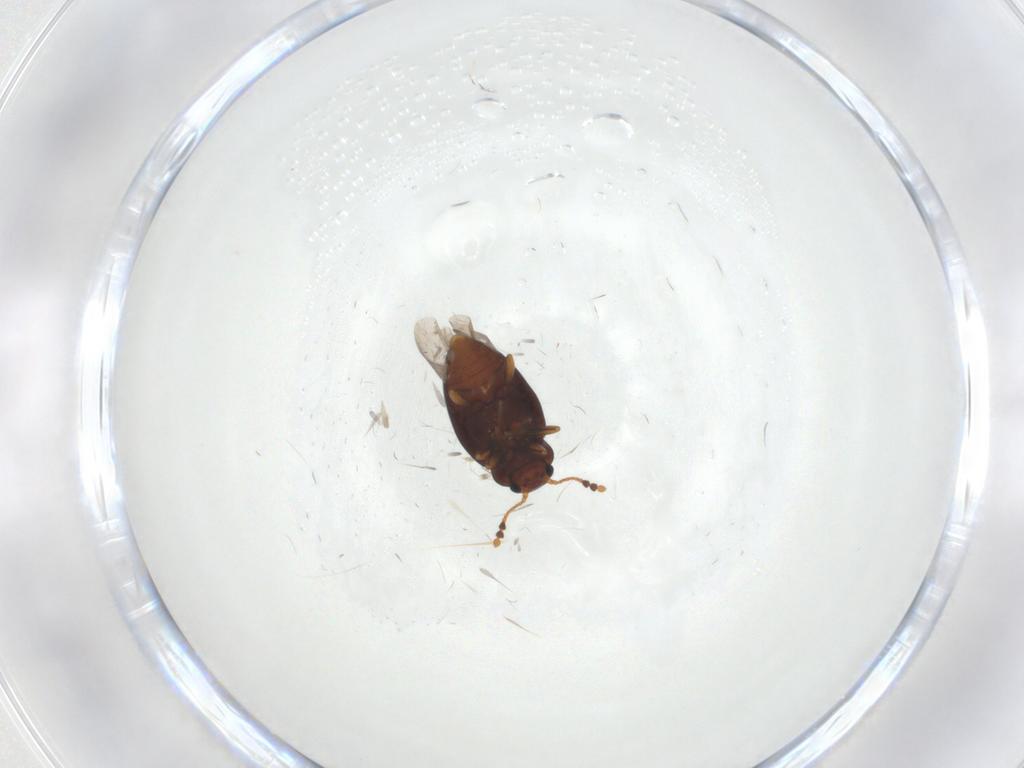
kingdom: Animalia
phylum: Arthropoda
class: Insecta
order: Coleoptera
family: Erotylidae
